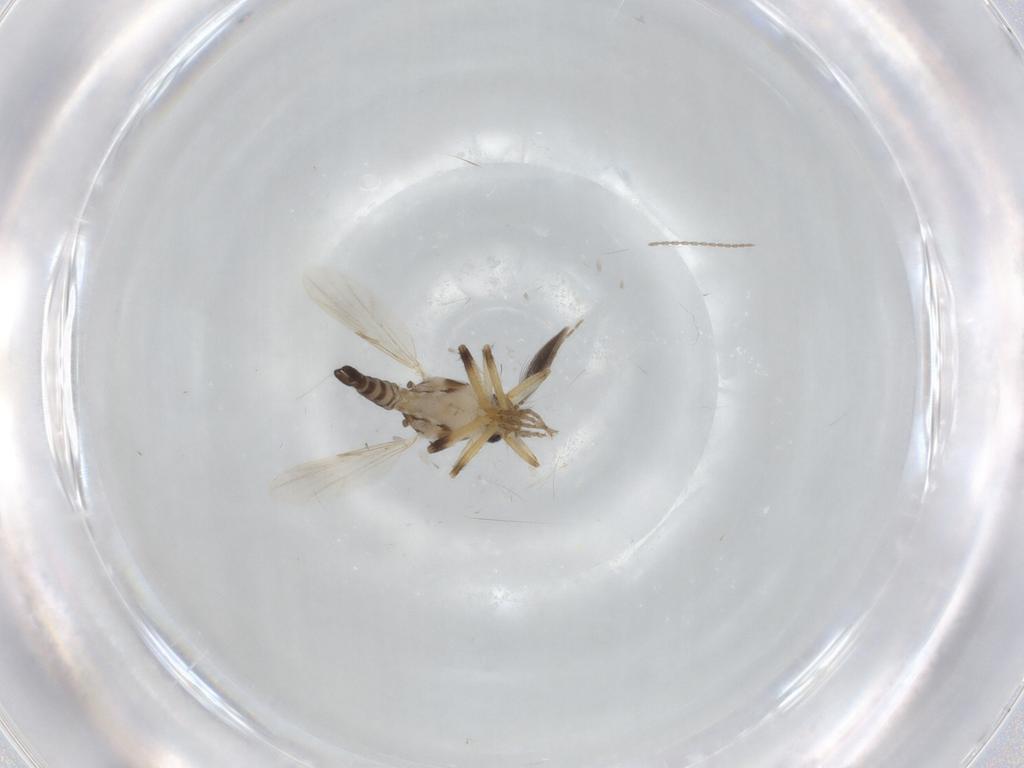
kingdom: Animalia
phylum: Arthropoda
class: Insecta
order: Diptera
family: Ceratopogonidae
